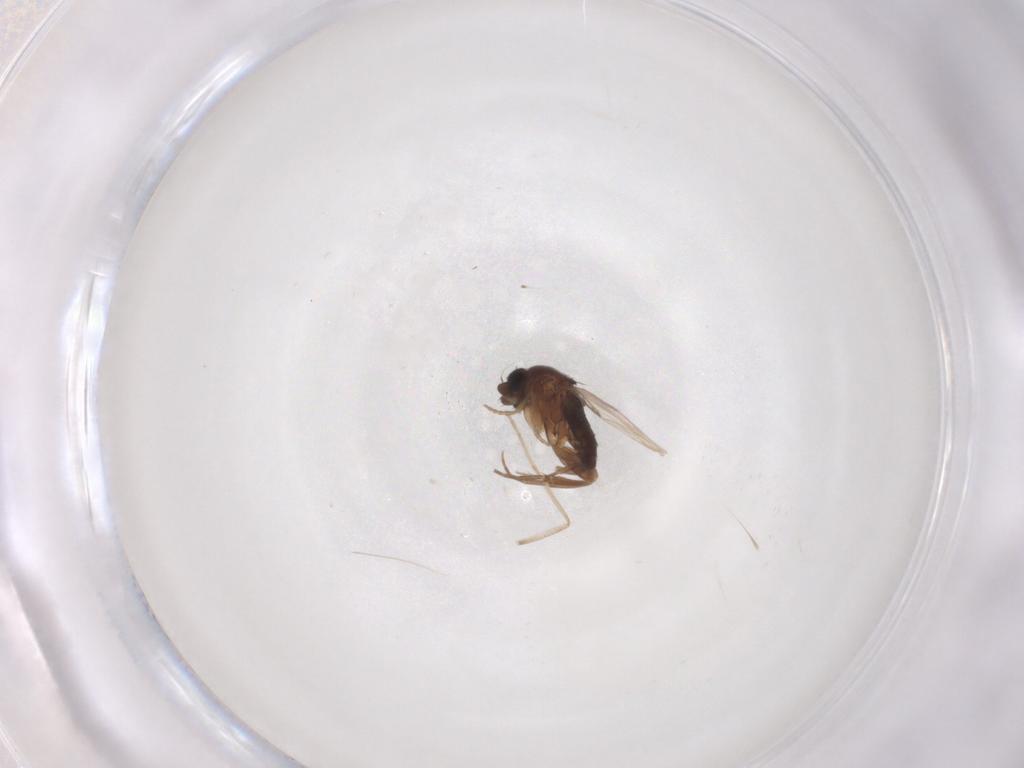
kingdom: Animalia
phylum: Arthropoda
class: Insecta
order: Diptera
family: Phoridae
